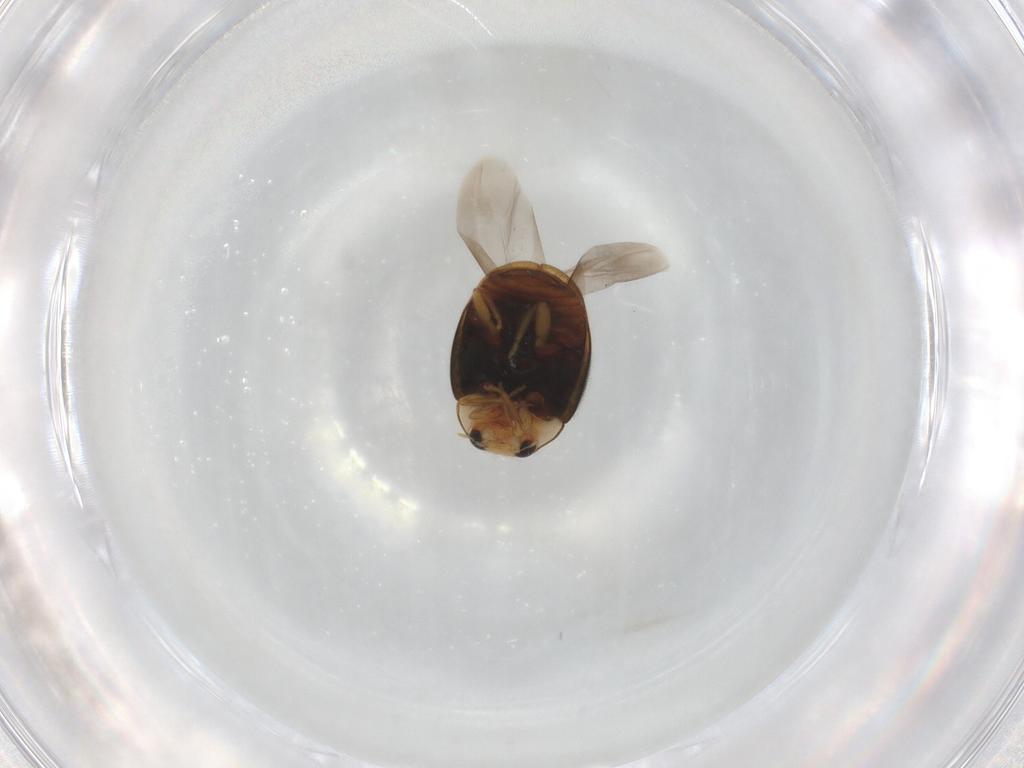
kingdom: Animalia
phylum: Arthropoda
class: Insecta
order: Coleoptera
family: Coccinellidae
